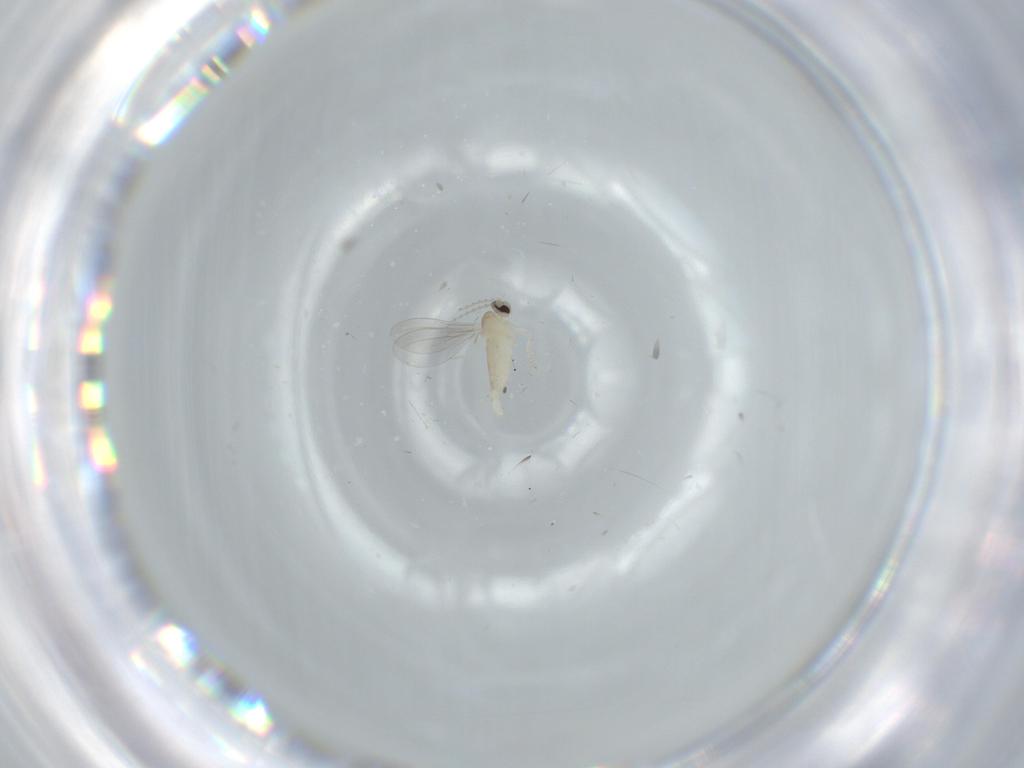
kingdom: Animalia
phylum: Arthropoda
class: Insecta
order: Diptera
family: Cecidomyiidae
